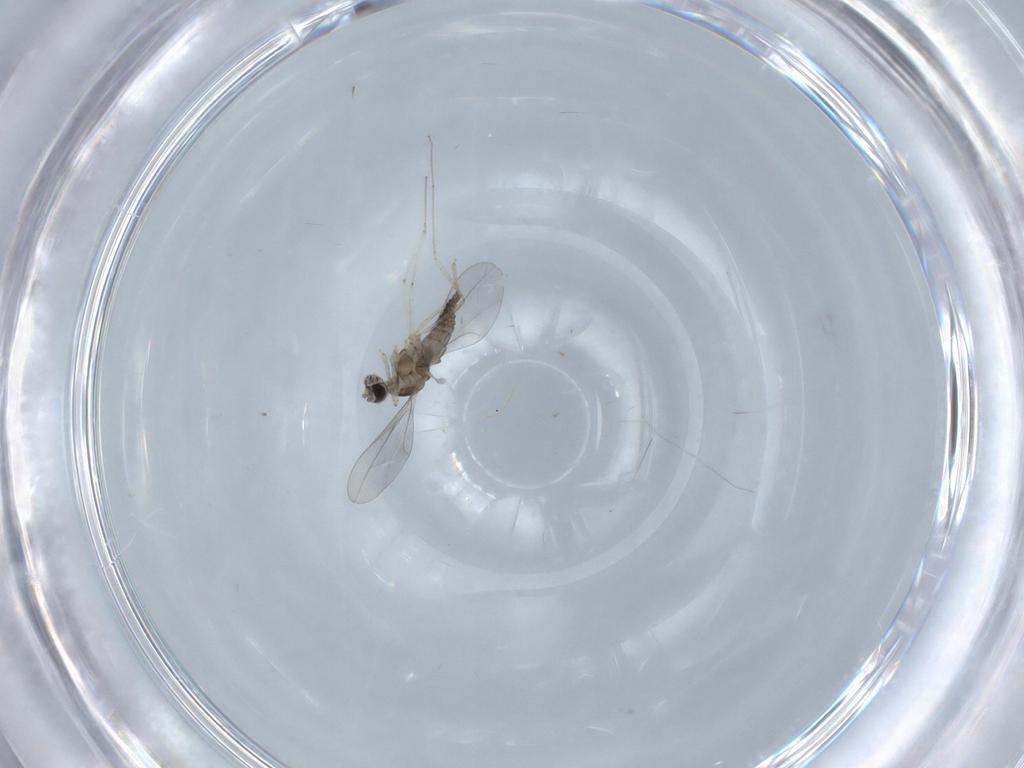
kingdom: Animalia
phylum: Arthropoda
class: Insecta
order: Diptera
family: Cecidomyiidae
